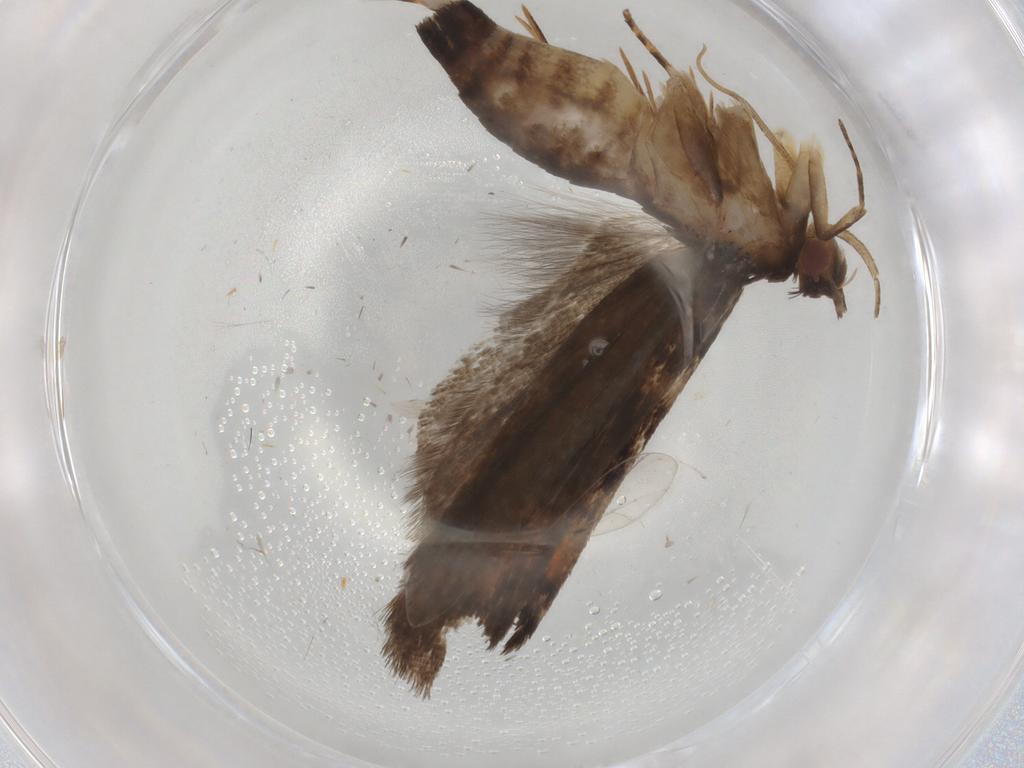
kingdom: Animalia
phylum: Arthropoda
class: Insecta
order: Lepidoptera
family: Gelechiidae
